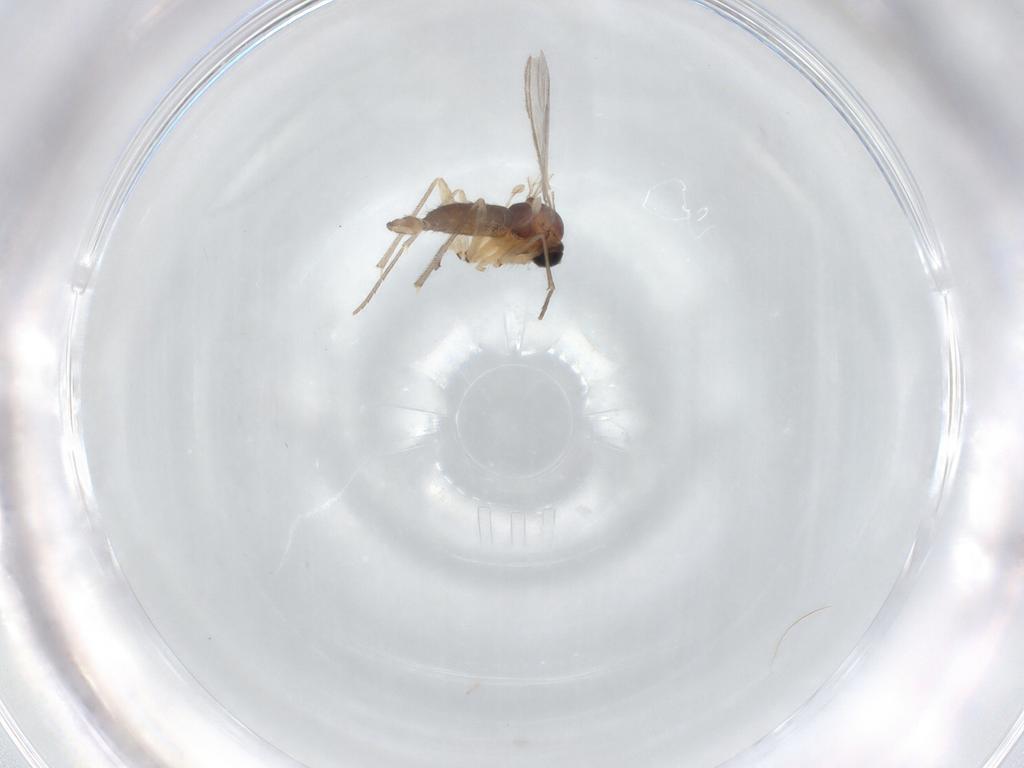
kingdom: Animalia
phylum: Arthropoda
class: Insecta
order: Diptera
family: Sciaridae
